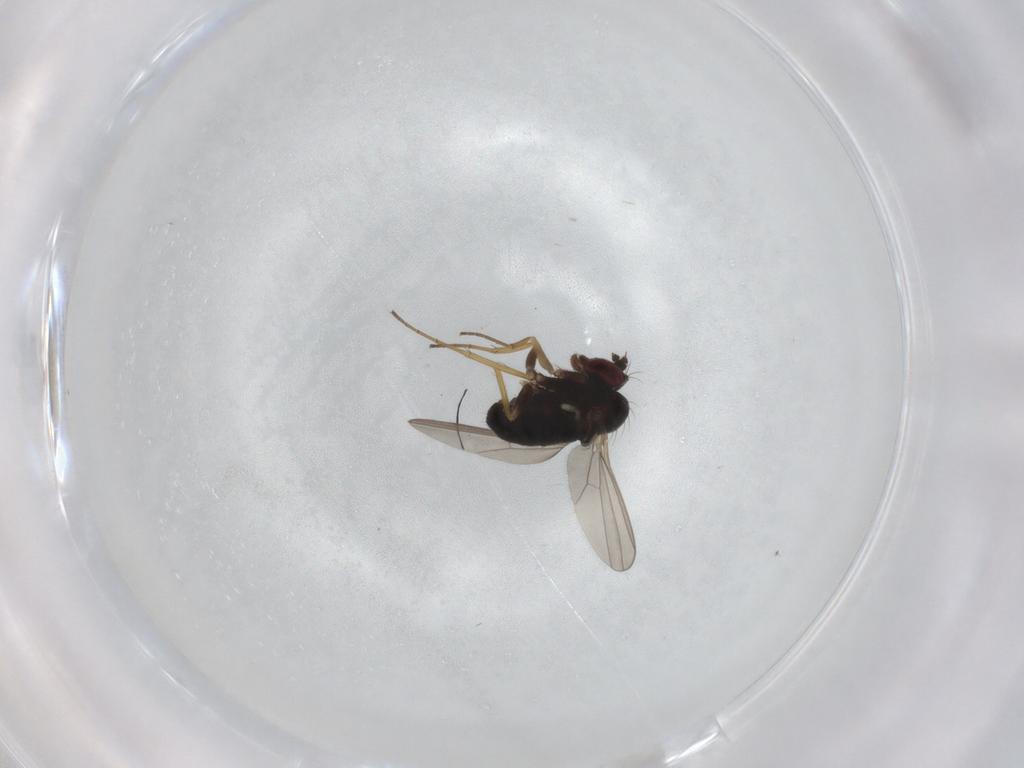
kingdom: Animalia
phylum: Arthropoda
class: Insecta
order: Diptera
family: Dolichopodidae
